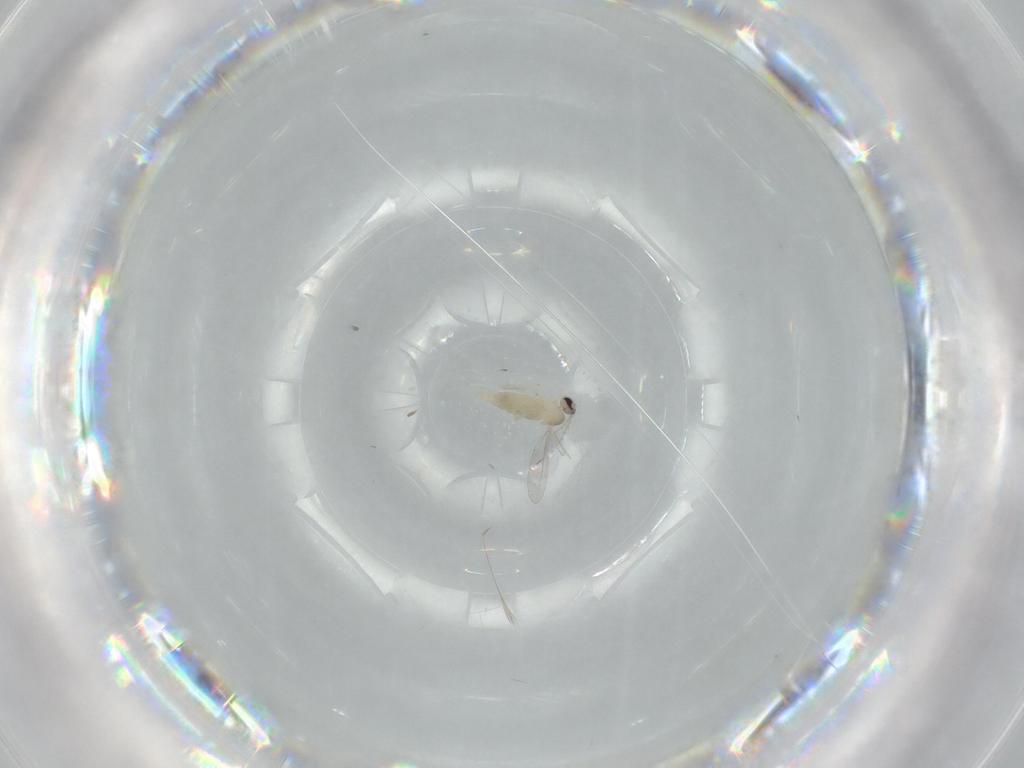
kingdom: Animalia
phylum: Arthropoda
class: Insecta
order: Diptera
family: Cecidomyiidae
